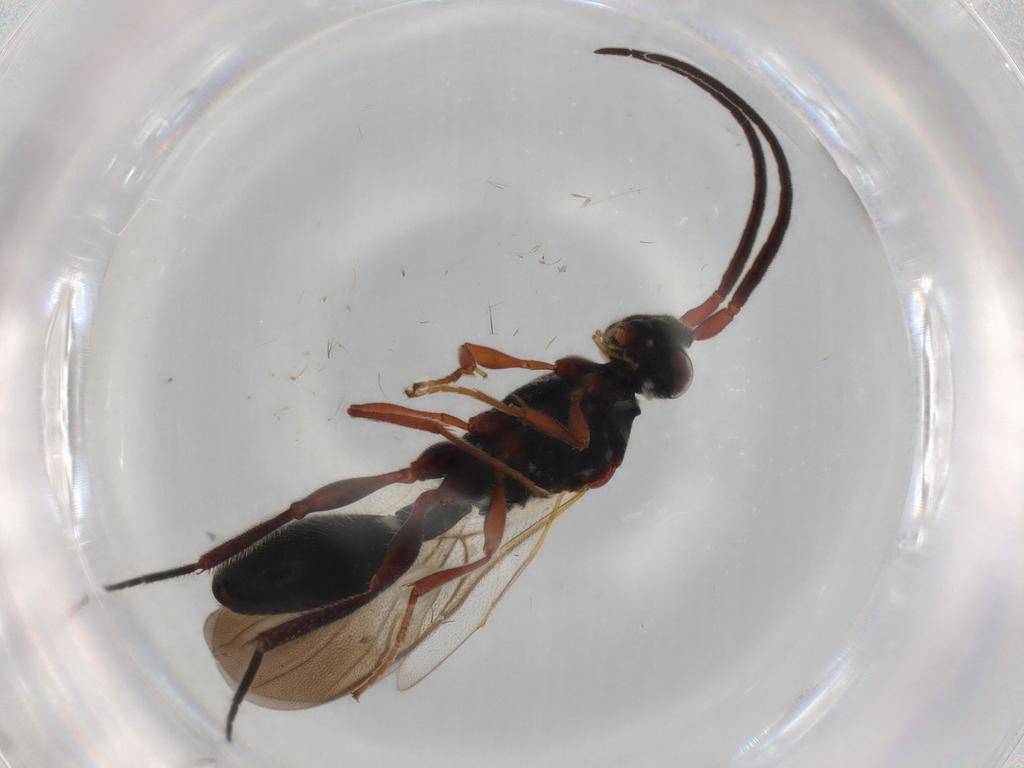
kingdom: Animalia
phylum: Arthropoda
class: Insecta
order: Hymenoptera
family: Diapriidae
